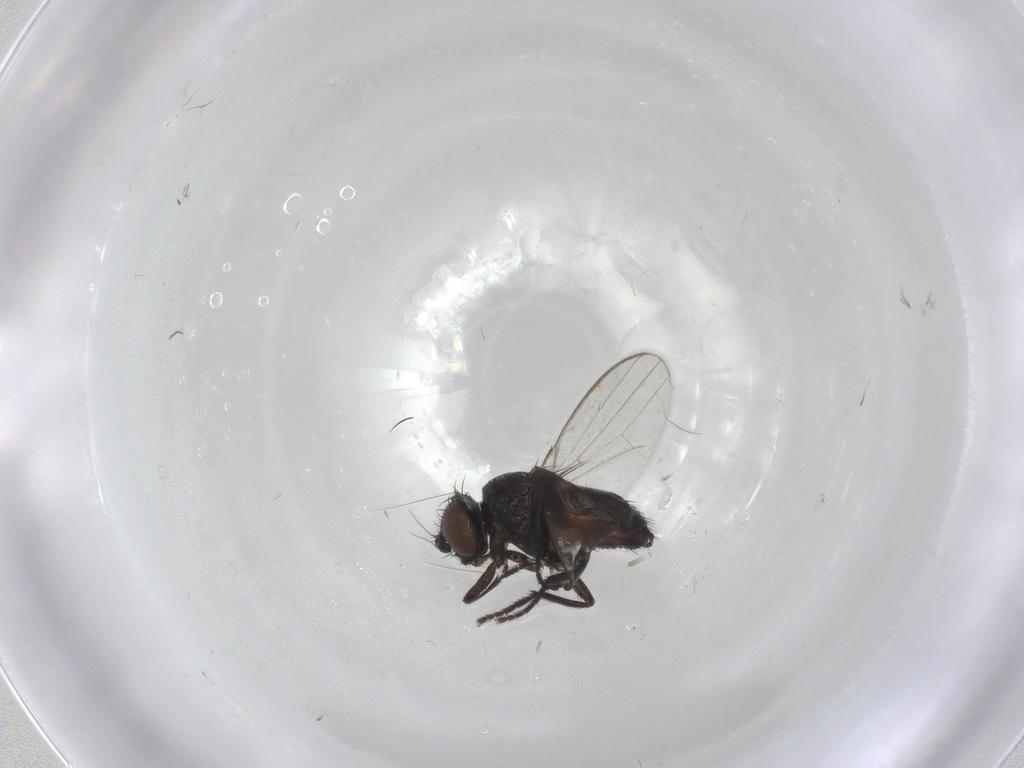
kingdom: Animalia
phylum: Arthropoda
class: Insecta
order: Diptera
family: Milichiidae
